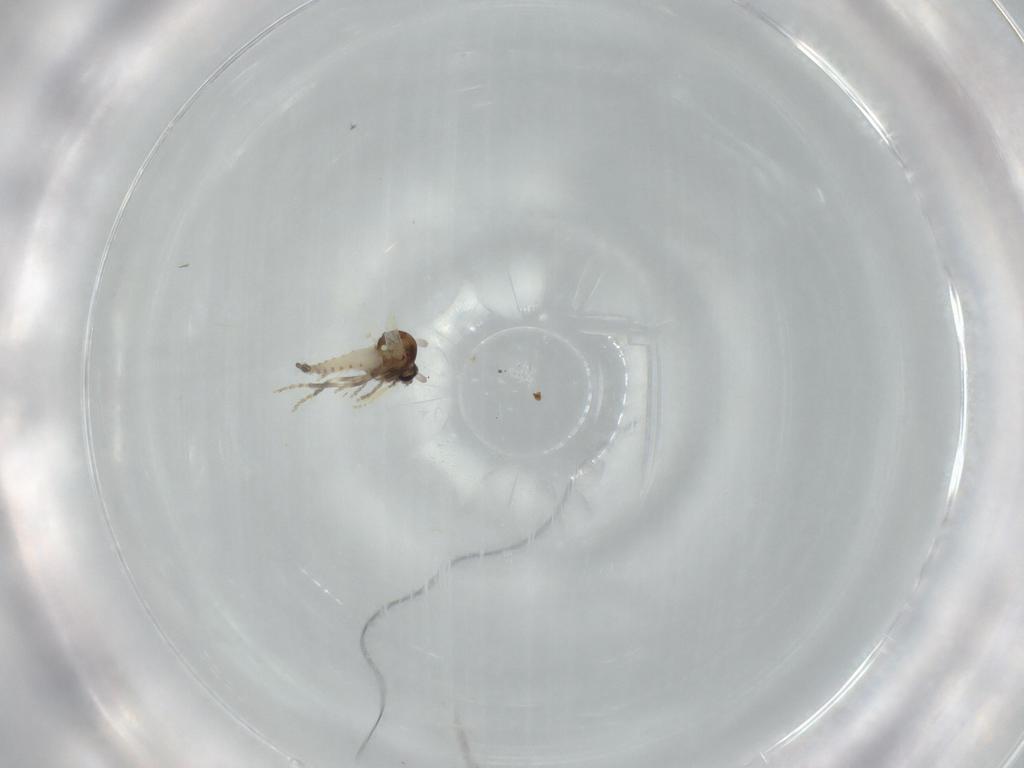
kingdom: Animalia
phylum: Arthropoda
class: Insecta
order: Diptera
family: Ceratopogonidae
